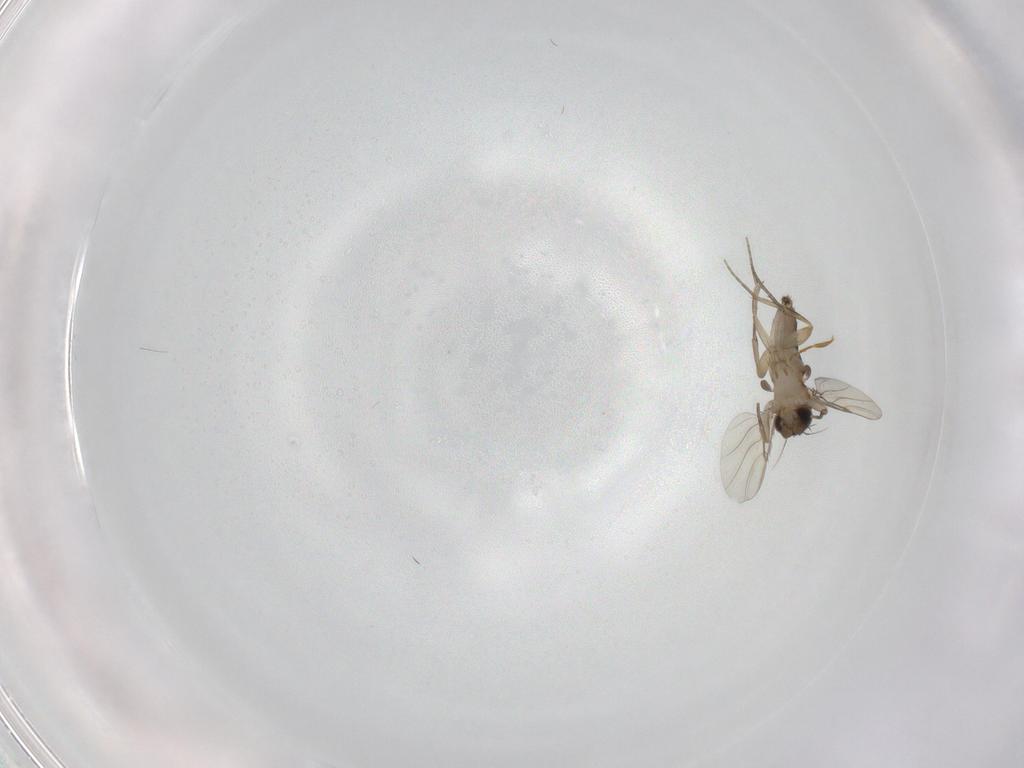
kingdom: Animalia
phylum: Arthropoda
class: Insecta
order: Diptera
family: Phoridae
